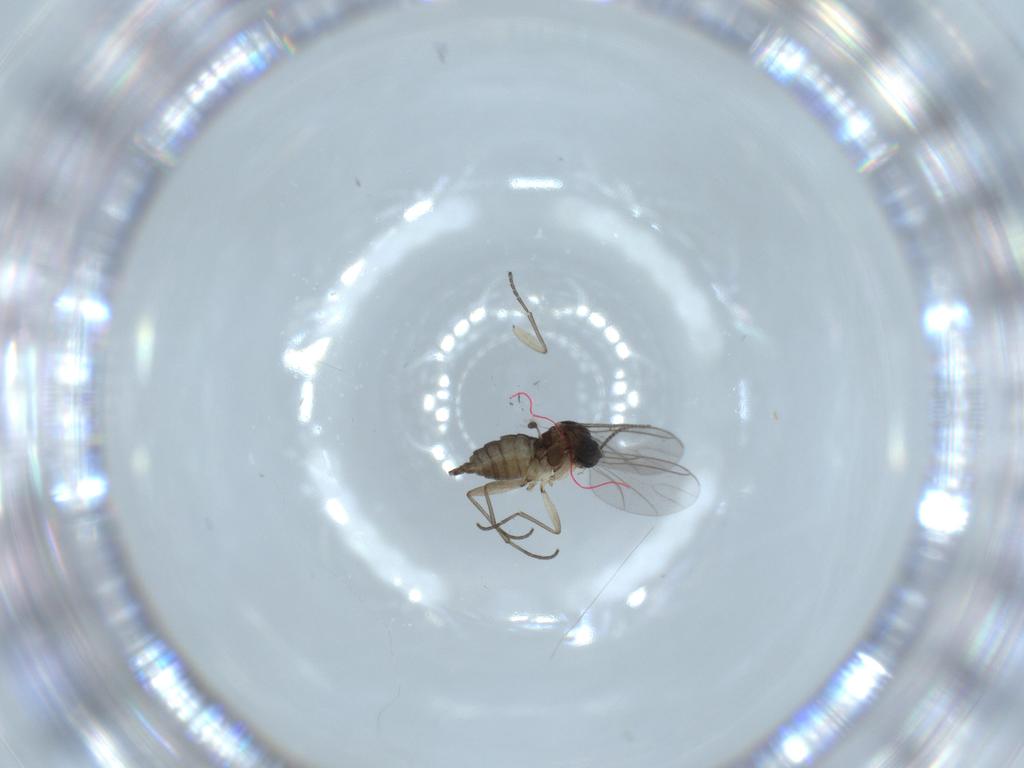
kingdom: Animalia
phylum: Arthropoda
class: Insecta
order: Diptera
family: Sciaridae
